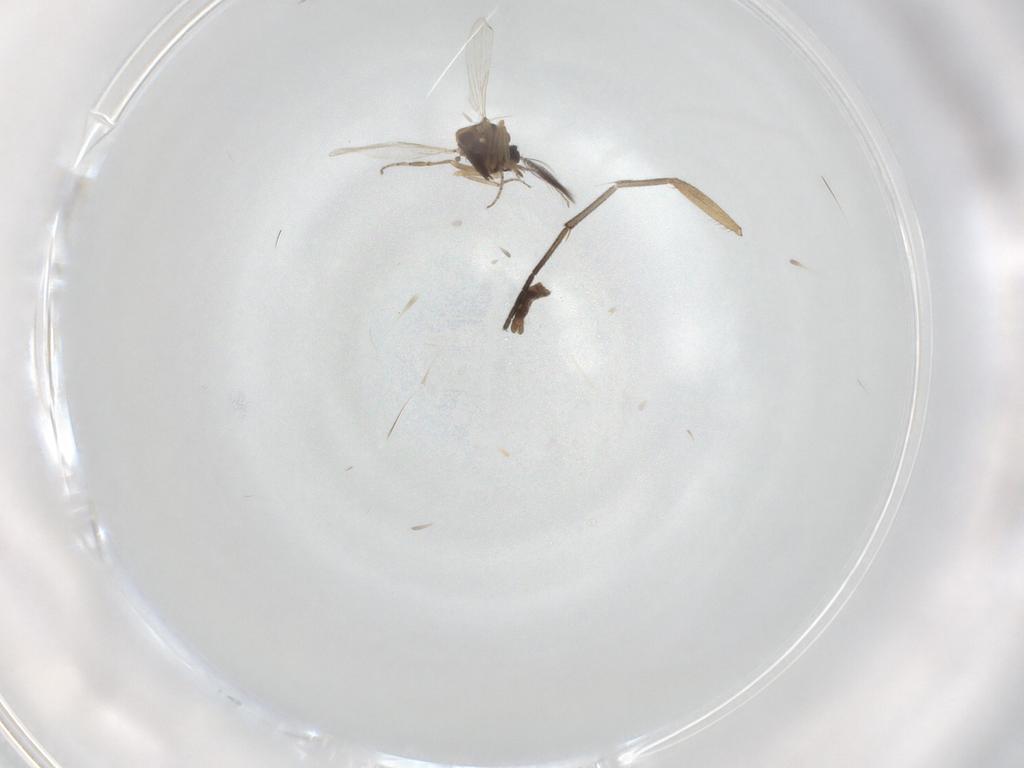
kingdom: Animalia
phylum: Arthropoda
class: Insecta
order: Diptera
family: Ceratopogonidae
